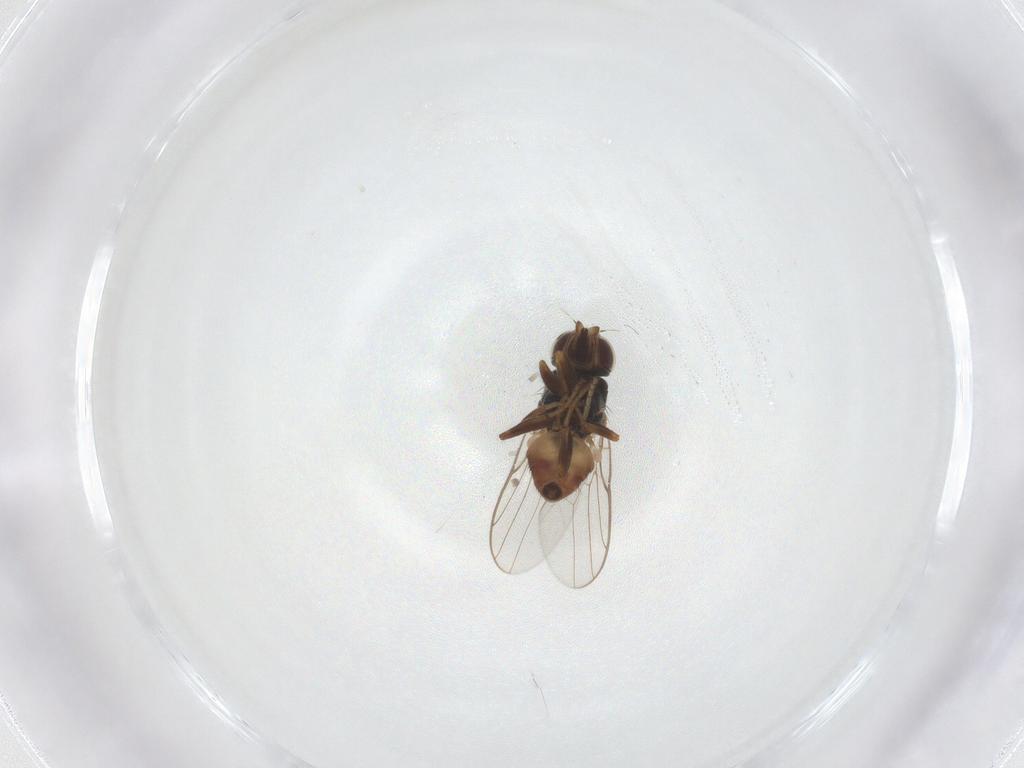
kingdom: Animalia
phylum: Arthropoda
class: Insecta
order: Diptera
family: Chloropidae
